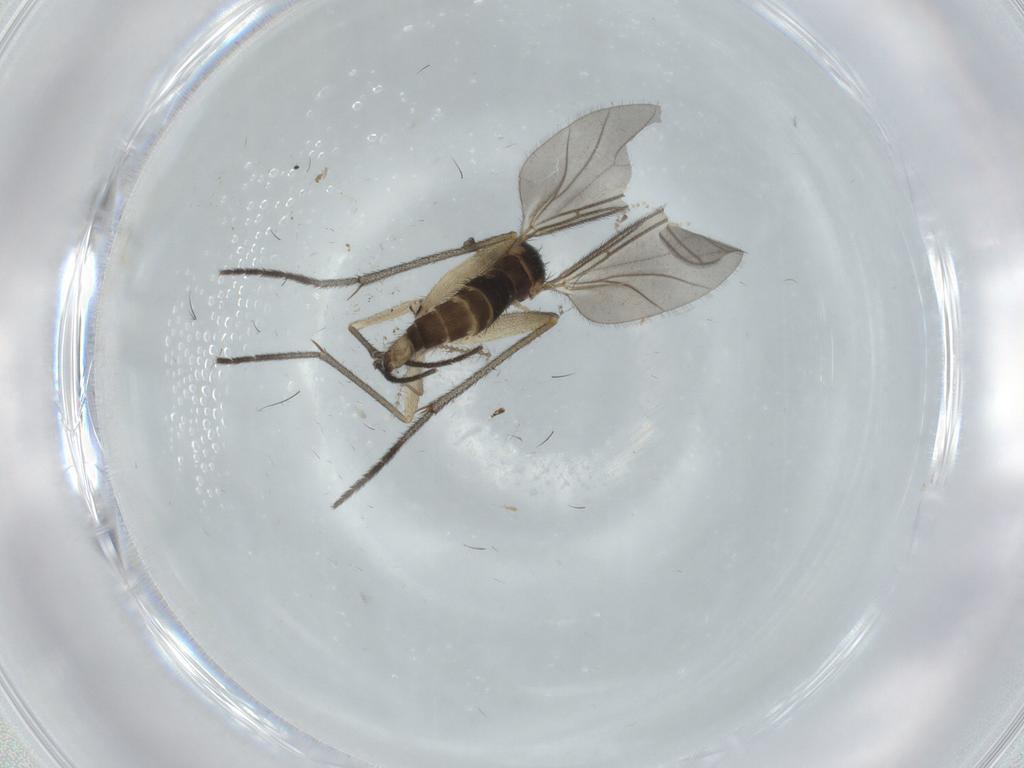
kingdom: Animalia
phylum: Arthropoda
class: Insecta
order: Diptera
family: Sciaridae
